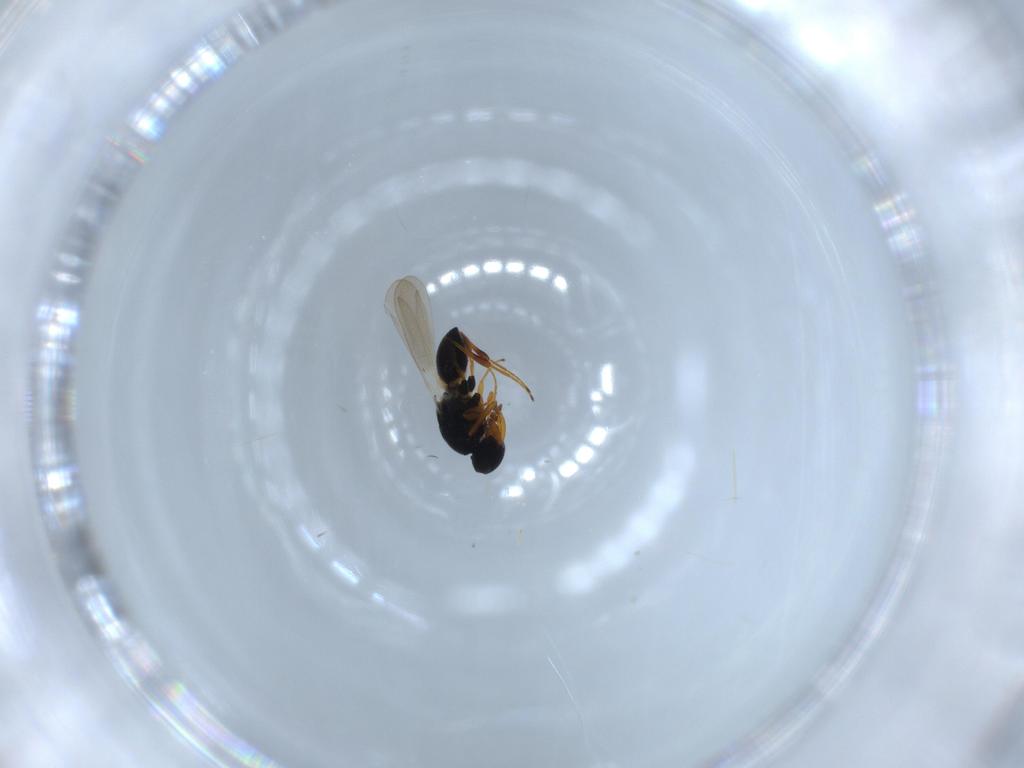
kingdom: Animalia
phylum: Arthropoda
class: Insecta
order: Hymenoptera
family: Platygastridae
